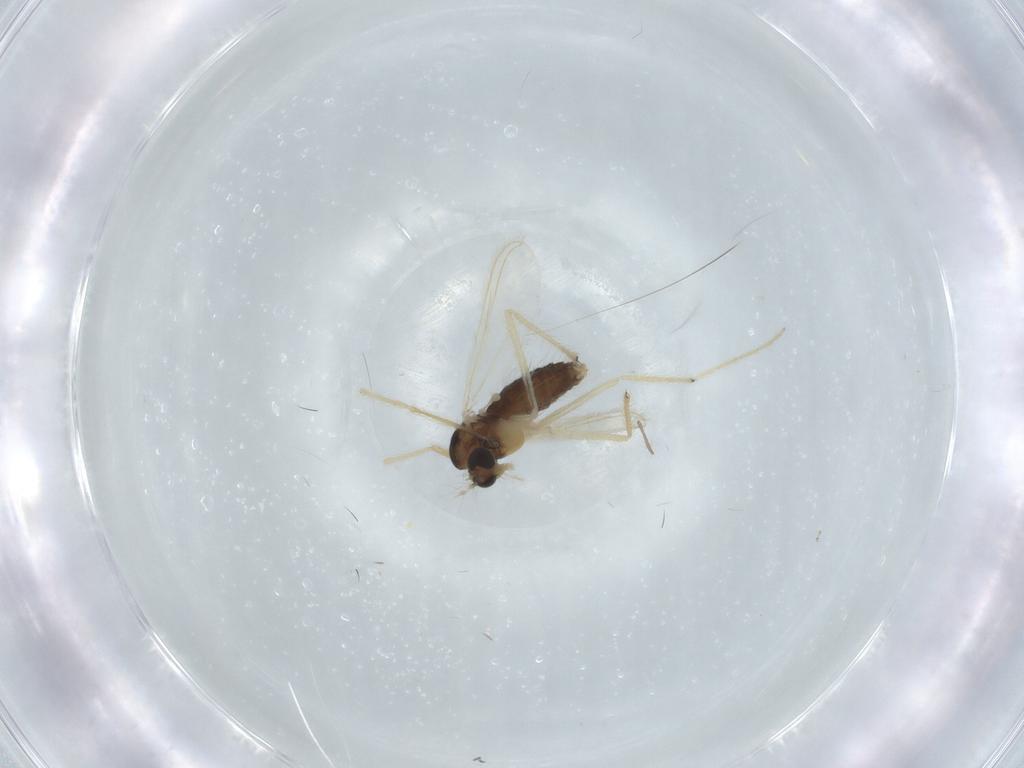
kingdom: Animalia
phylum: Arthropoda
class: Insecta
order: Diptera
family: Chironomidae
